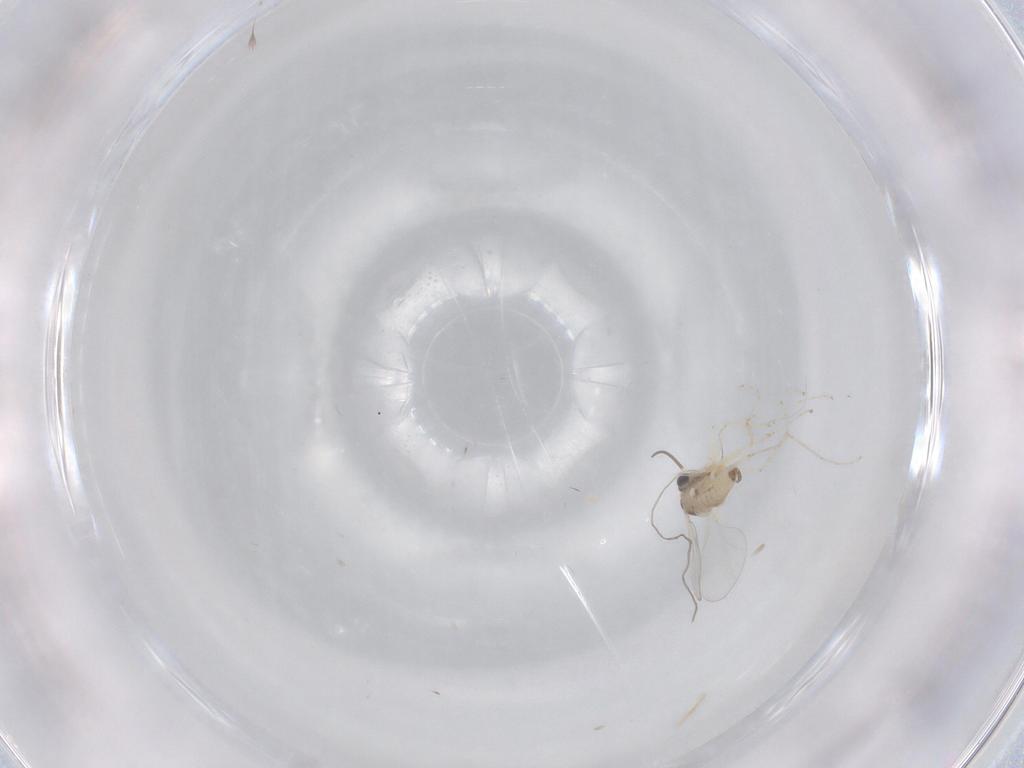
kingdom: Animalia
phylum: Arthropoda
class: Insecta
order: Diptera
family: Cecidomyiidae
